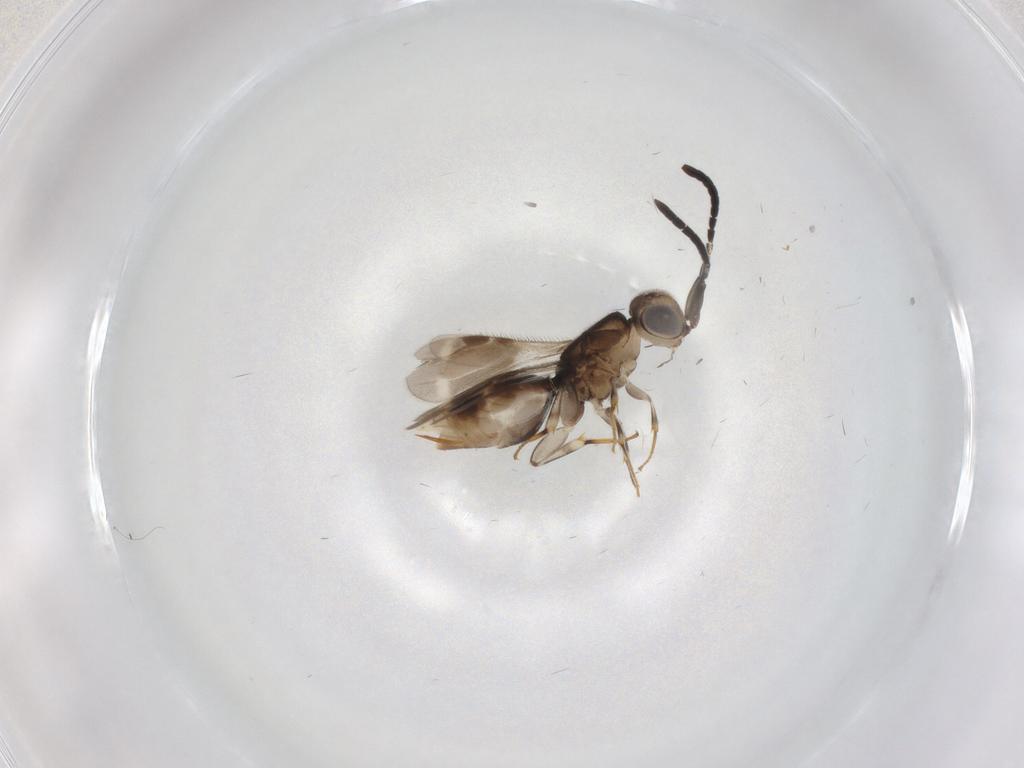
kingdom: Animalia
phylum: Arthropoda
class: Insecta
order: Hymenoptera
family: Megaspilidae
